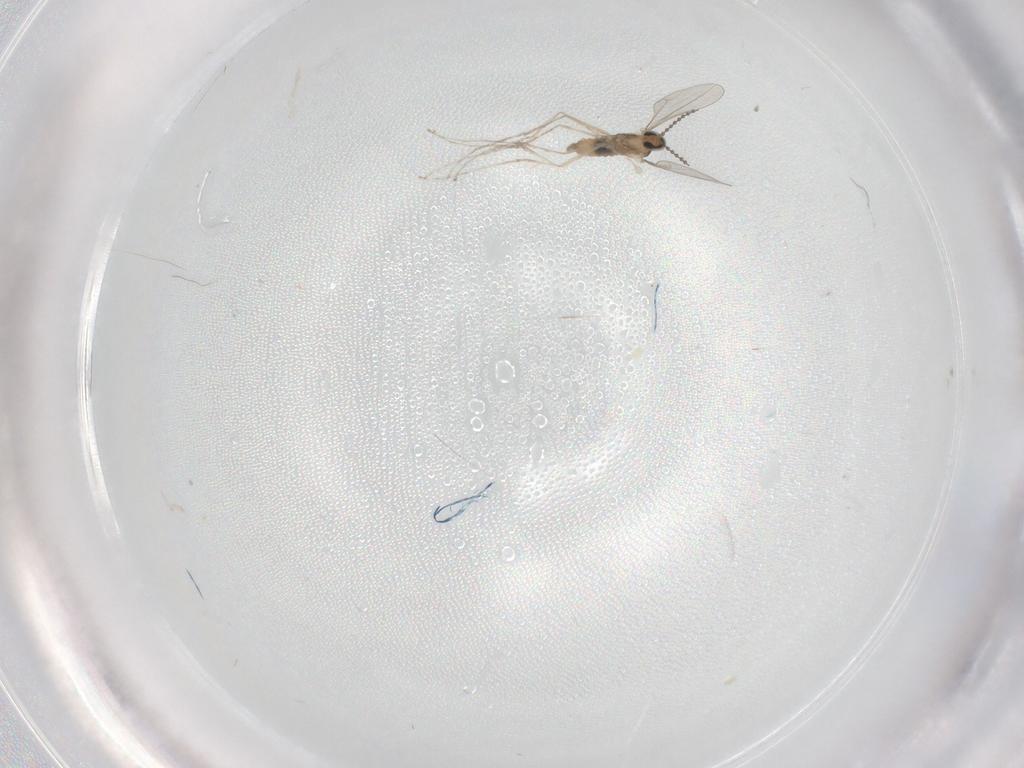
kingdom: Animalia
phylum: Arthropoda
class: Insecta
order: Diptera
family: Cecidomyiidae
